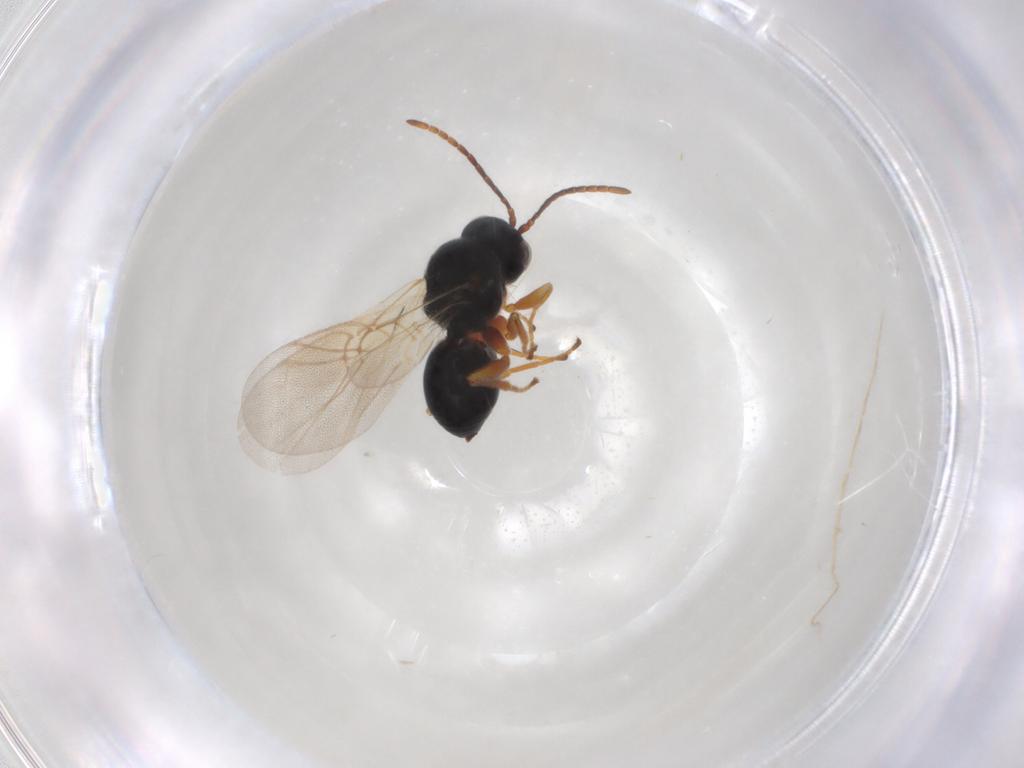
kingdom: Animalia
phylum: Arthropoda
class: Insecta
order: Hymenoptera
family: Cynipidae
